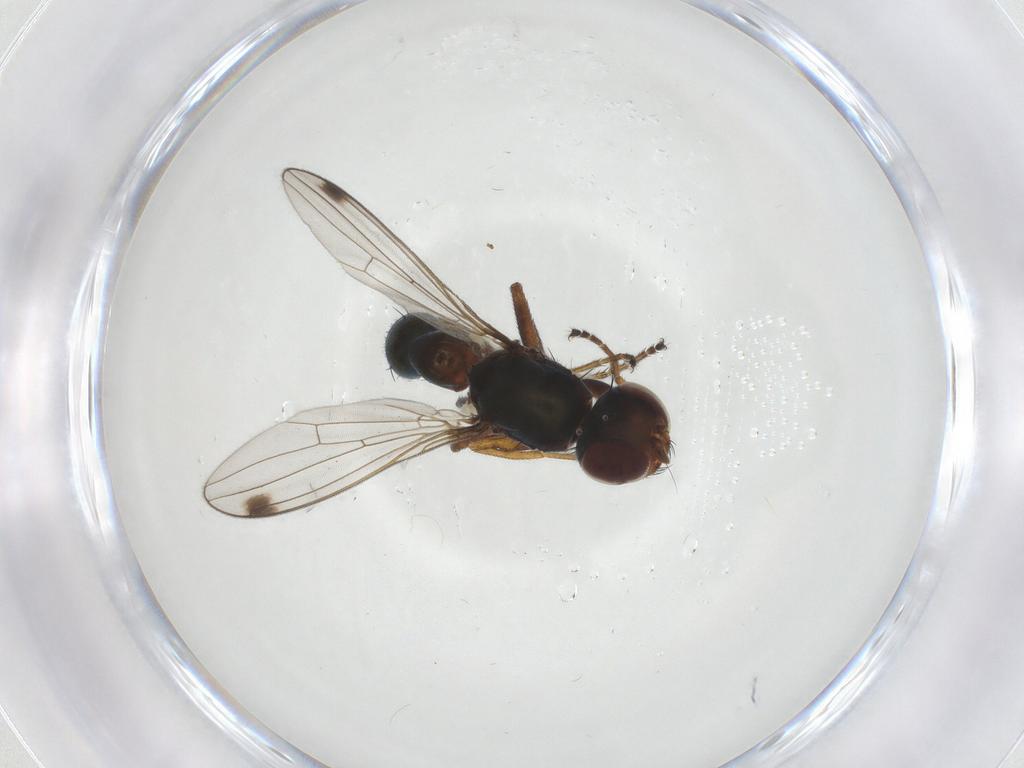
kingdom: Animalia
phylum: Arthropoda
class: Insecta
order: Diptera
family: Sepsidae
